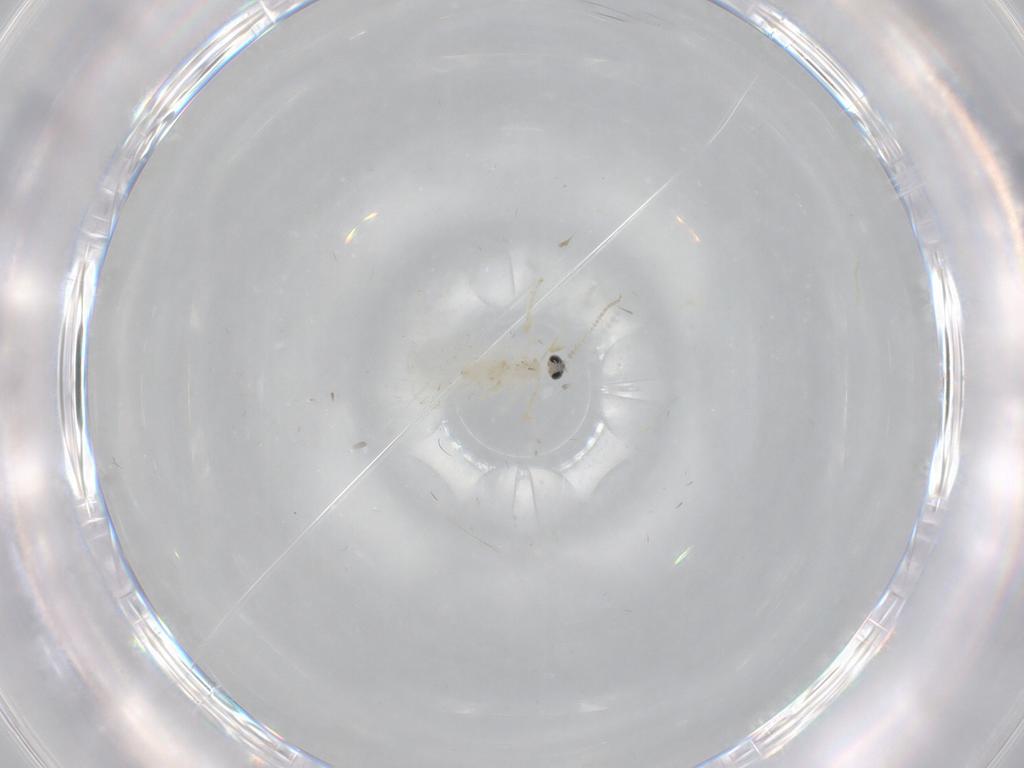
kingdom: Animalia
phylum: Arthropoda
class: Insecta
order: Diptera
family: Cecidomyiidae
